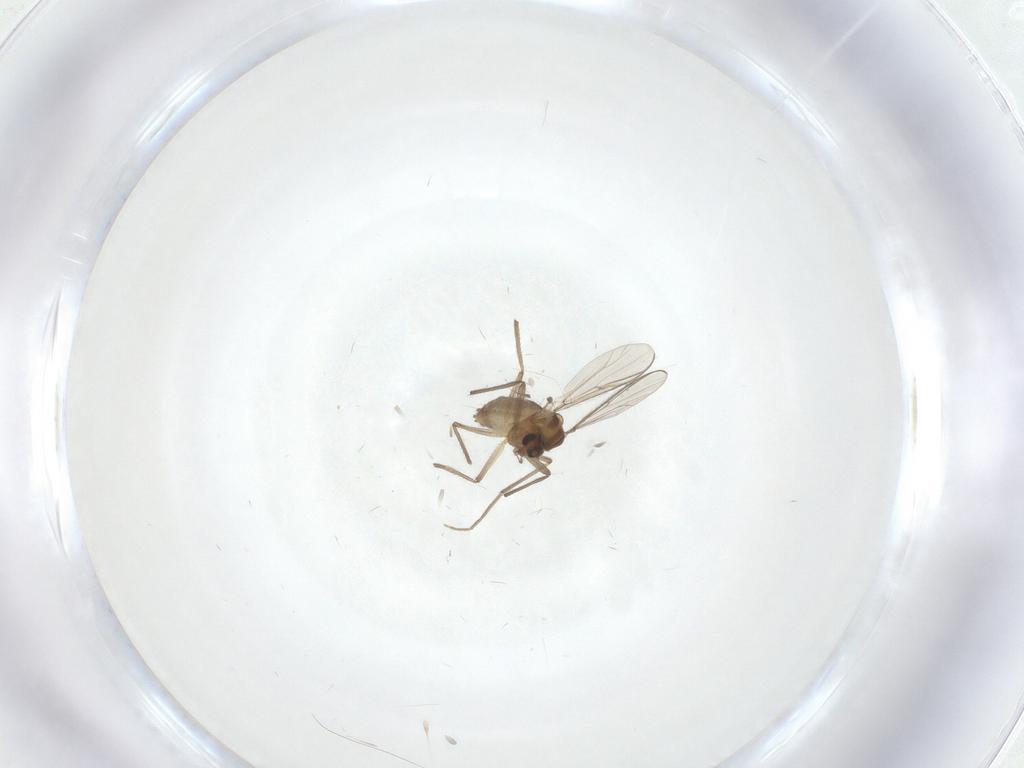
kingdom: Animalia
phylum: Arthropoda
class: Insecta
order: Diptera
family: Chironomidae
